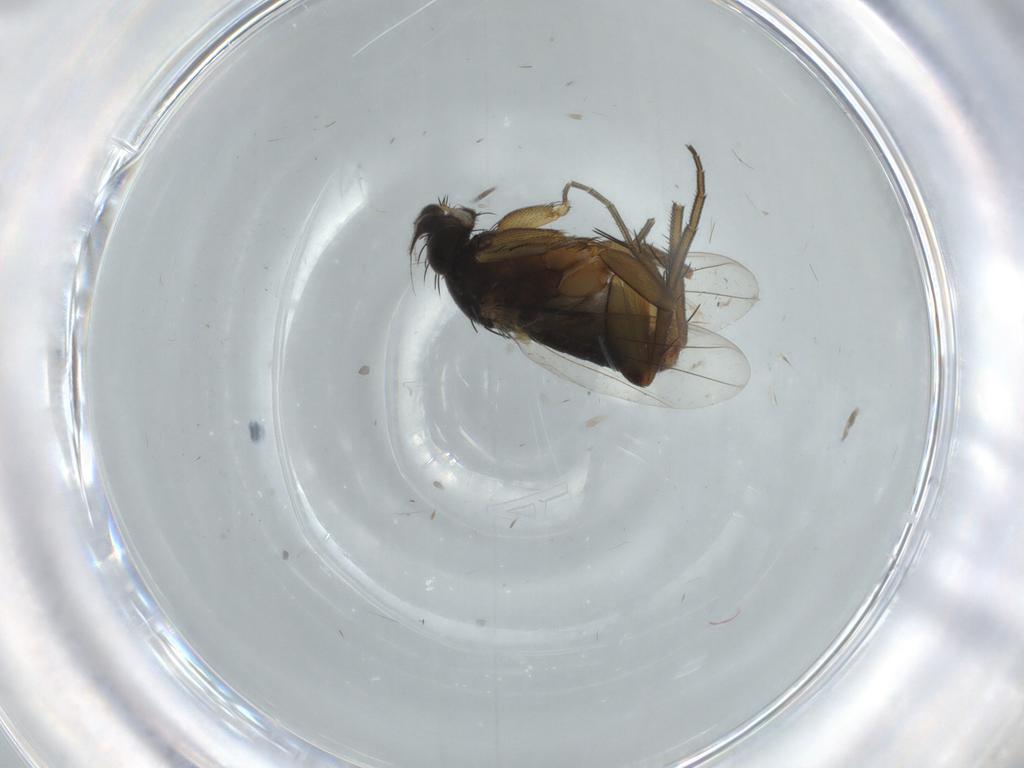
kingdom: Animalia
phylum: Arthropoda
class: Insecta
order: Diptera
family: Phoridae
